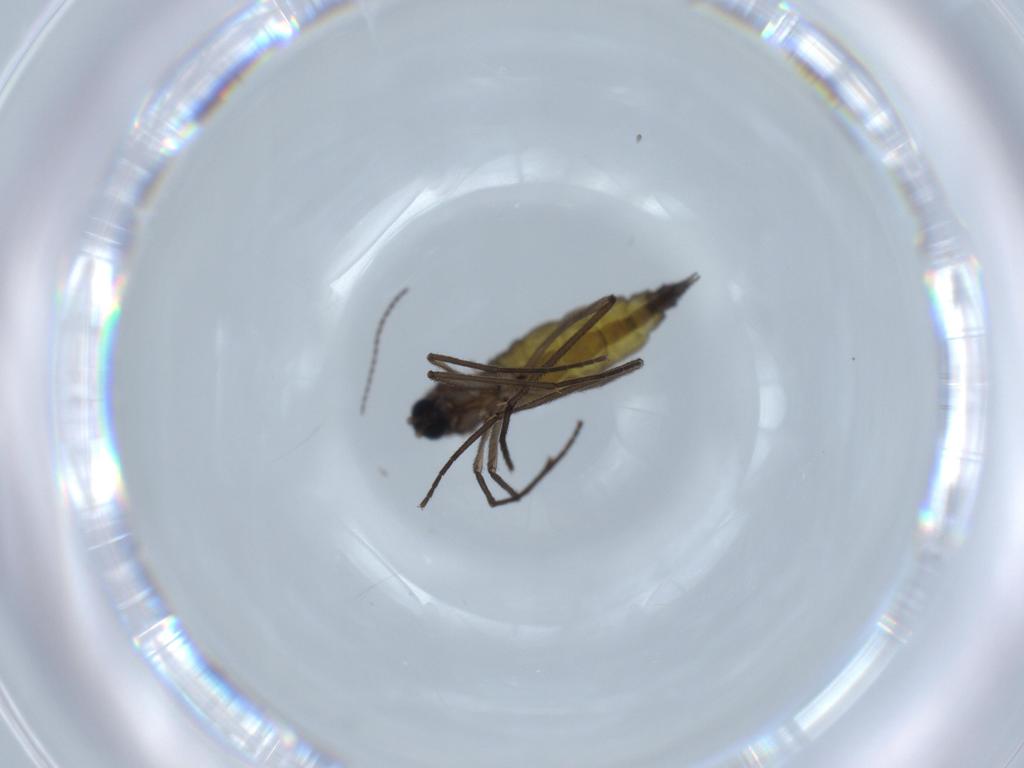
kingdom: Animalia
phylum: Arthropoda
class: Insecta
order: Diptera
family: Sciaridae
